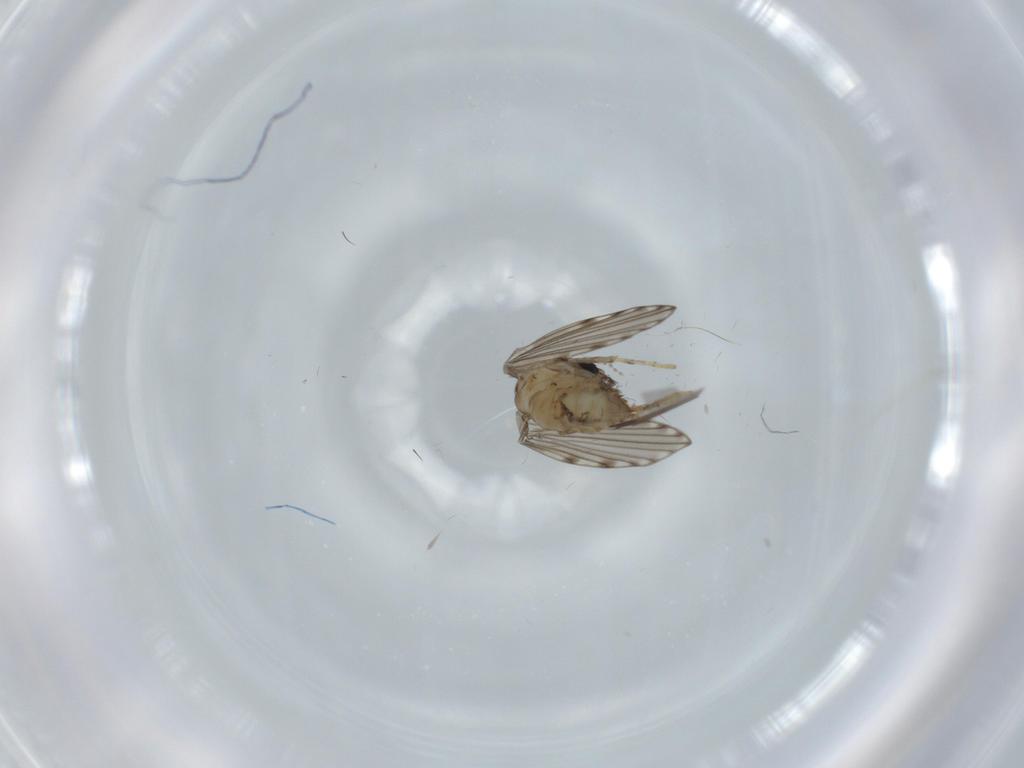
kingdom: Animalia
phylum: Arthropoda
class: Insecta
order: Diptera
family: Psychodidae
